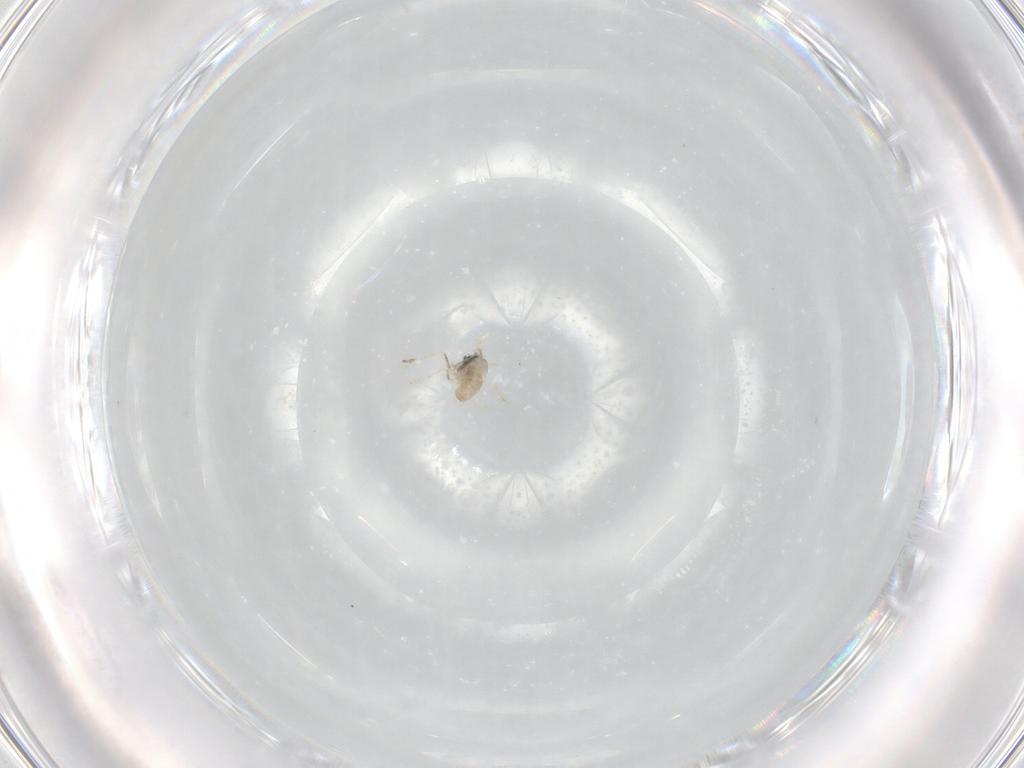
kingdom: Animalia
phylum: Arthropoda
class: Insecta
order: Diptera
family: Cecidomyiidae
